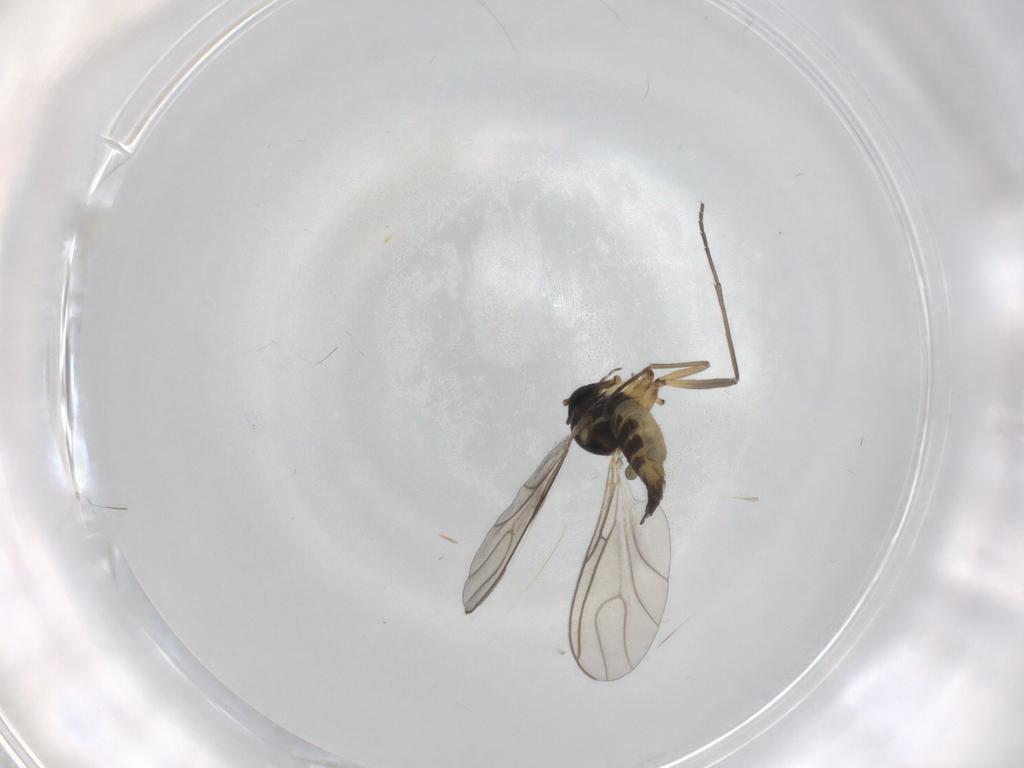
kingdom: Animalia
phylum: Arthropoda
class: Insecta
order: Diptera
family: Sciaridae
